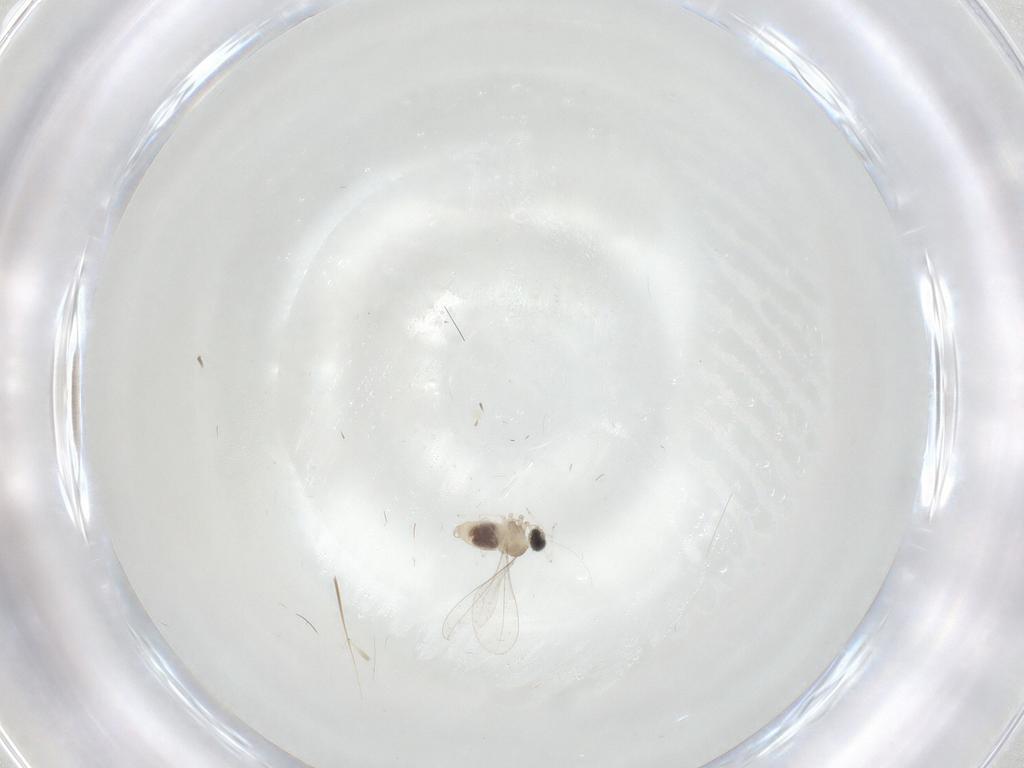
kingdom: Animalia
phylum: Arthropoda
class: Insecta
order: Diptera
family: Cecidomyiidae
